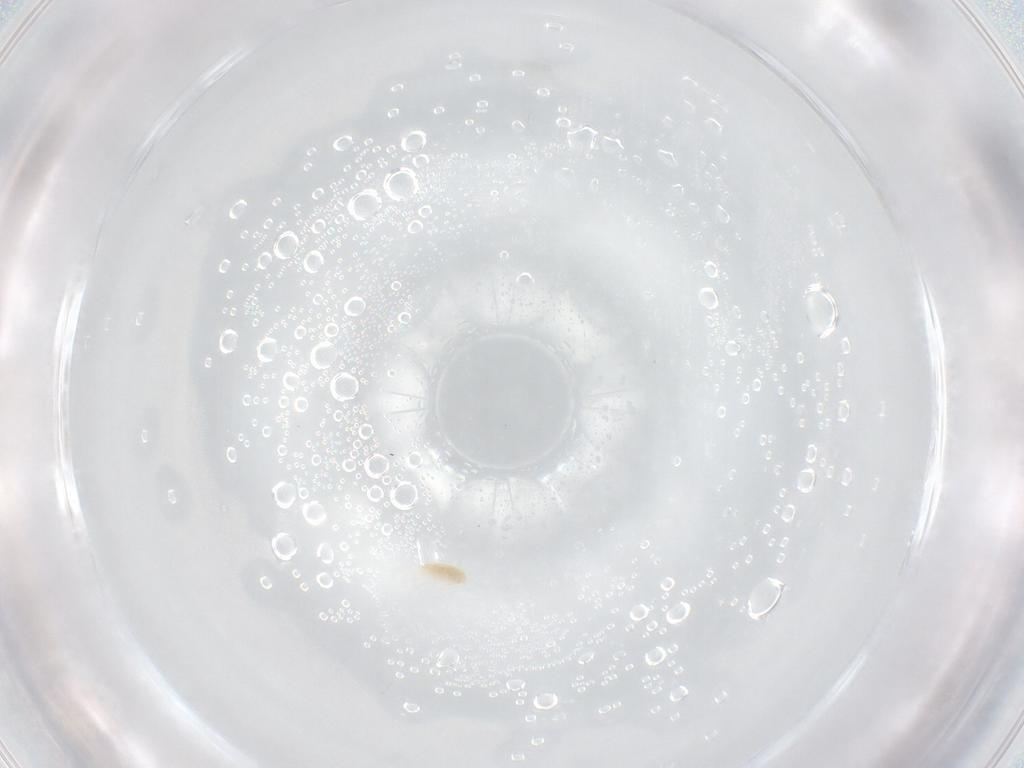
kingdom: Animalia
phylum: Arthropoda
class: Arachnida
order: Trombidiformes
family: Eupodidae
